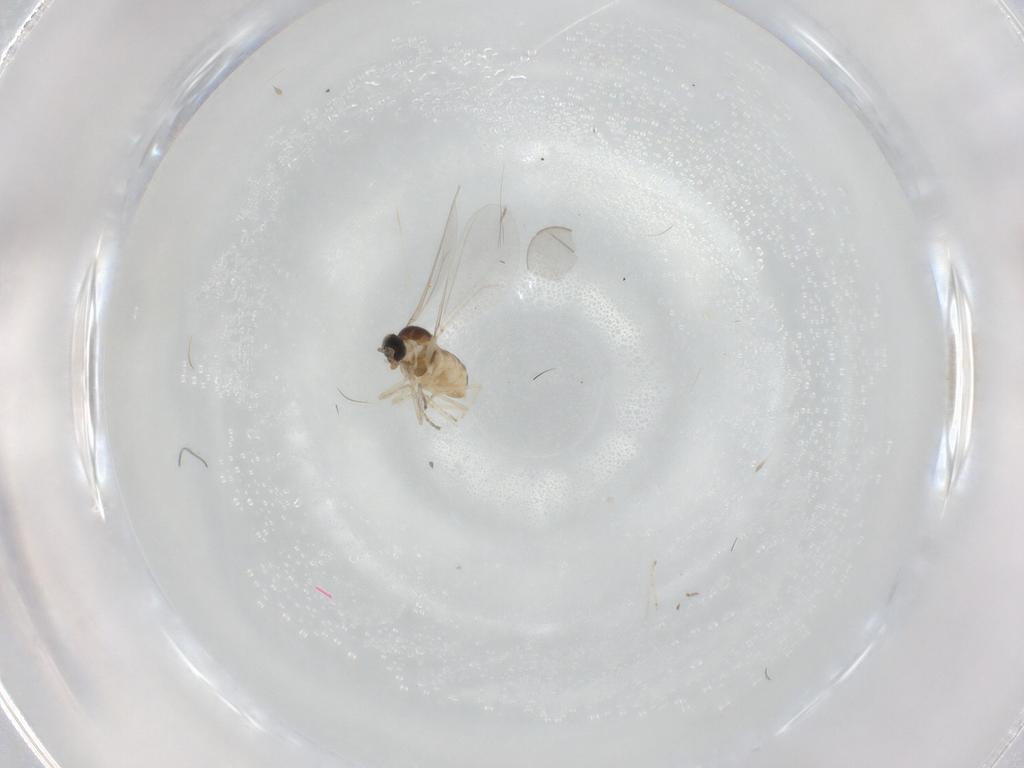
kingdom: Animalia
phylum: Arthropoda
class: Insecta
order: Diptera
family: Cecidomyiidae
